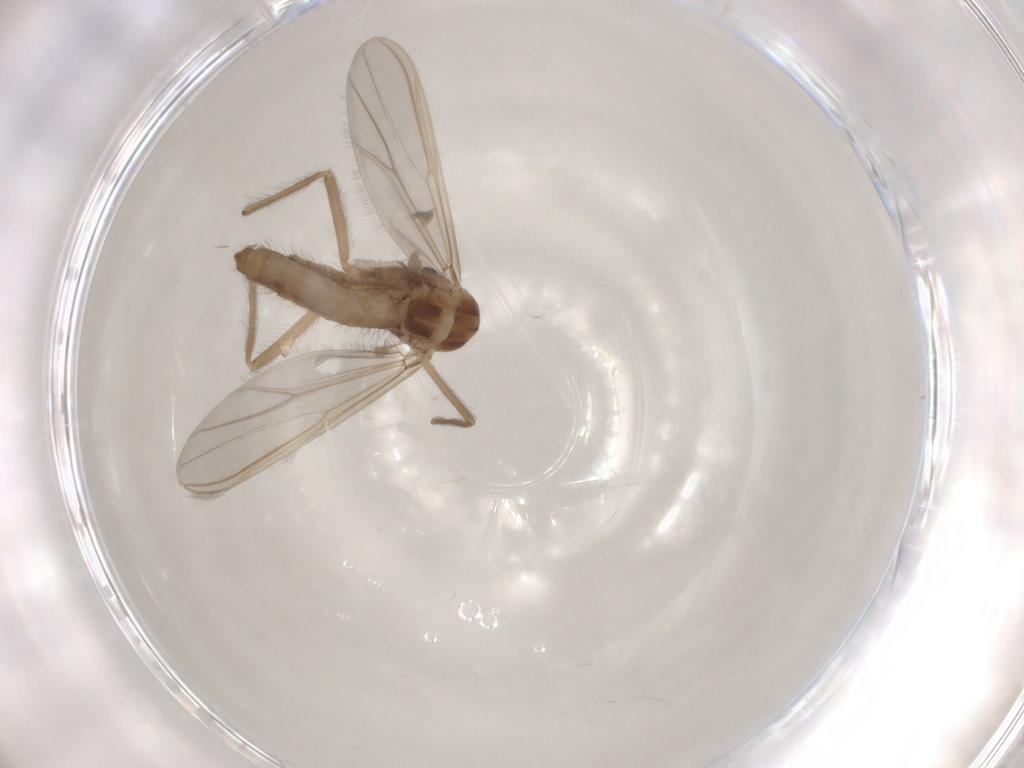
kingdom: Animalia
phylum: Arthropoda
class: Insecta
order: Diptera
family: Chironomidae
